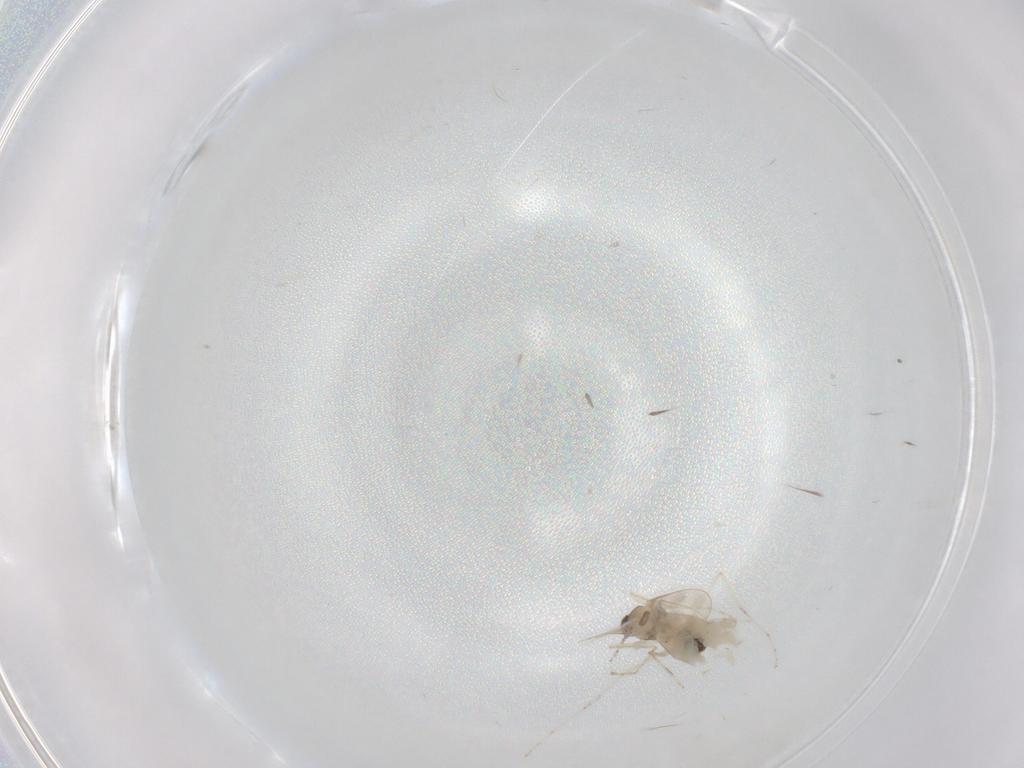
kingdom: Animalia
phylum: Arthropoda
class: Insecta
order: Diptera
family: Cecidomyiidae
